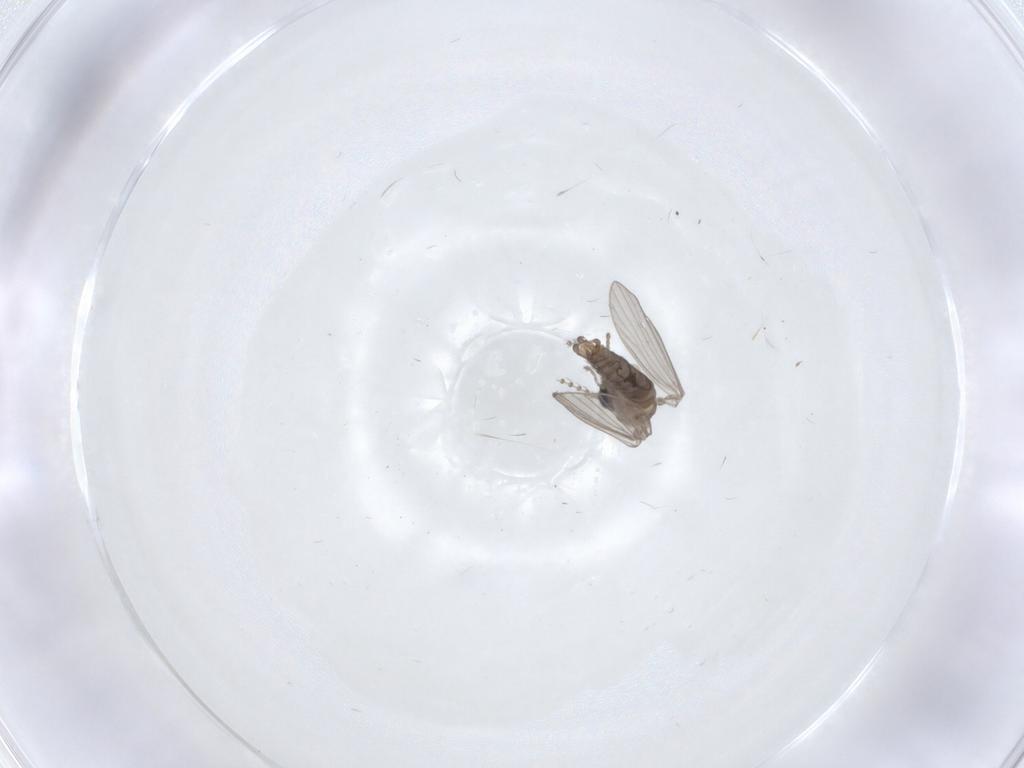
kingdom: Animalia
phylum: Arthropoda
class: Insecta
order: Diptera
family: Psychodidae
